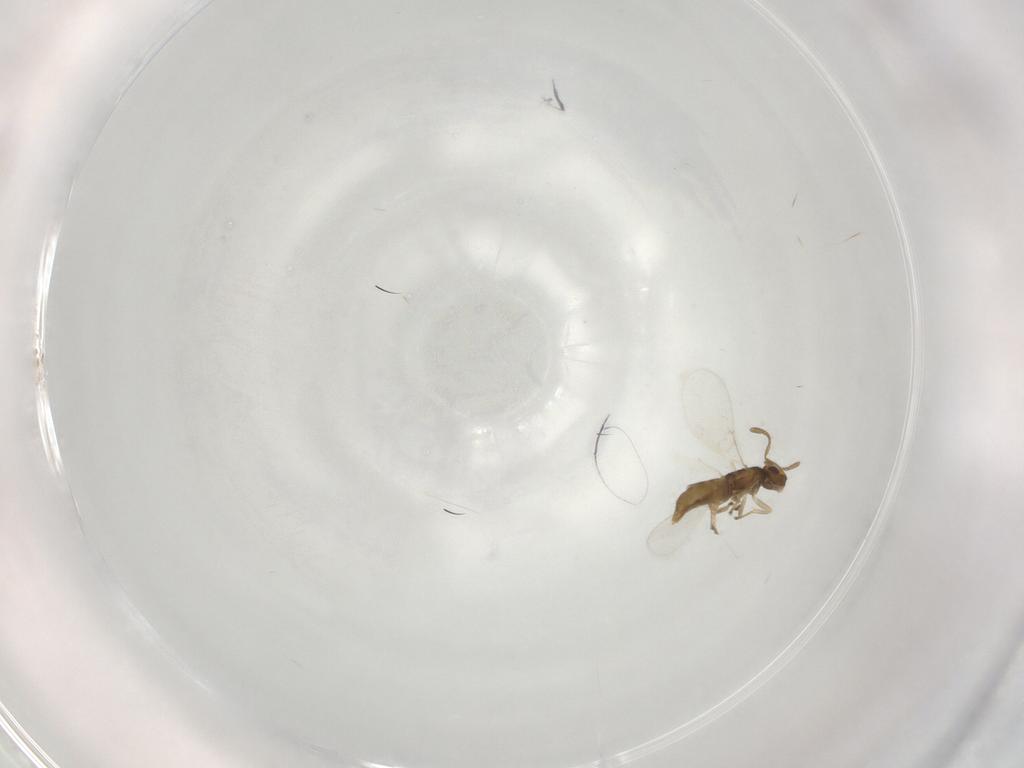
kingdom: Animalia
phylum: Arthropoda
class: Insecta
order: Hymenoptera
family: Encyrtidae
